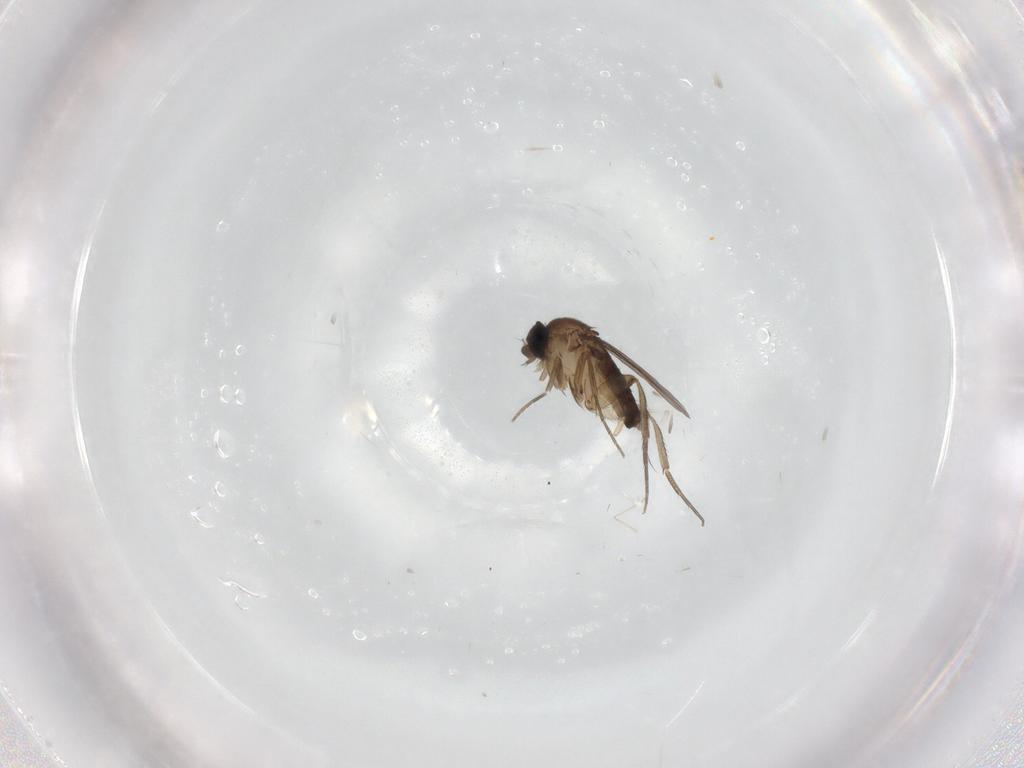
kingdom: Animalia
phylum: Arthropoda
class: Insecta
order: Diptera
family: Phoridae
